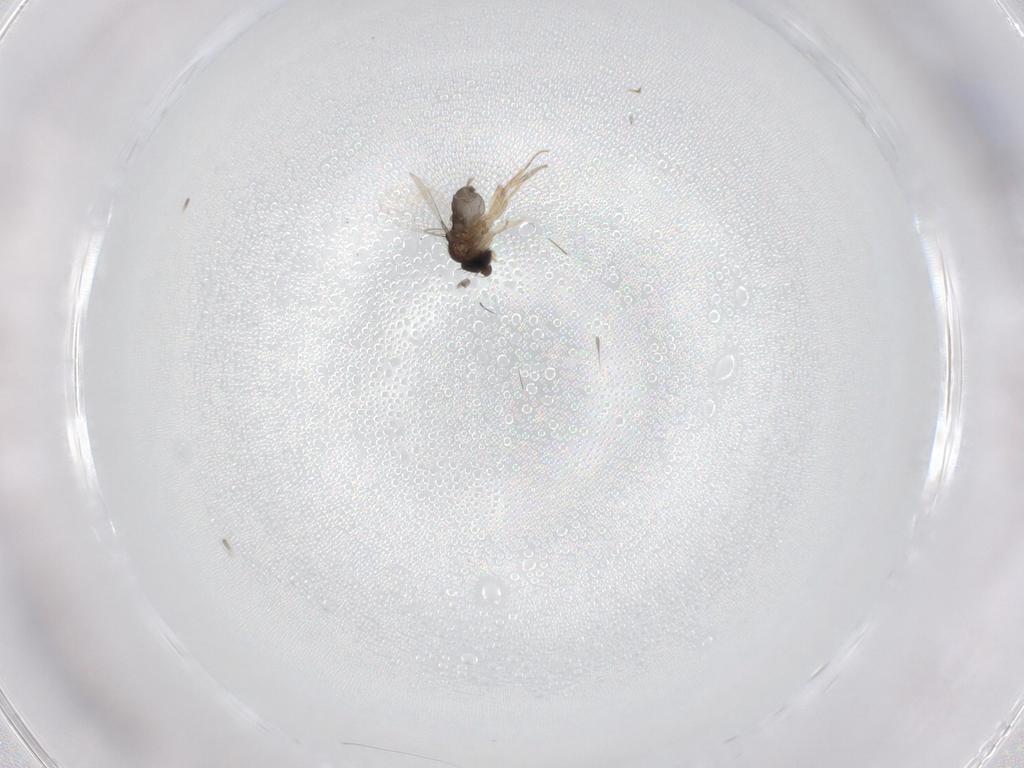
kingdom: Animalia
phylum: Arthropoda
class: Insecta
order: Diptera
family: Phoridae
